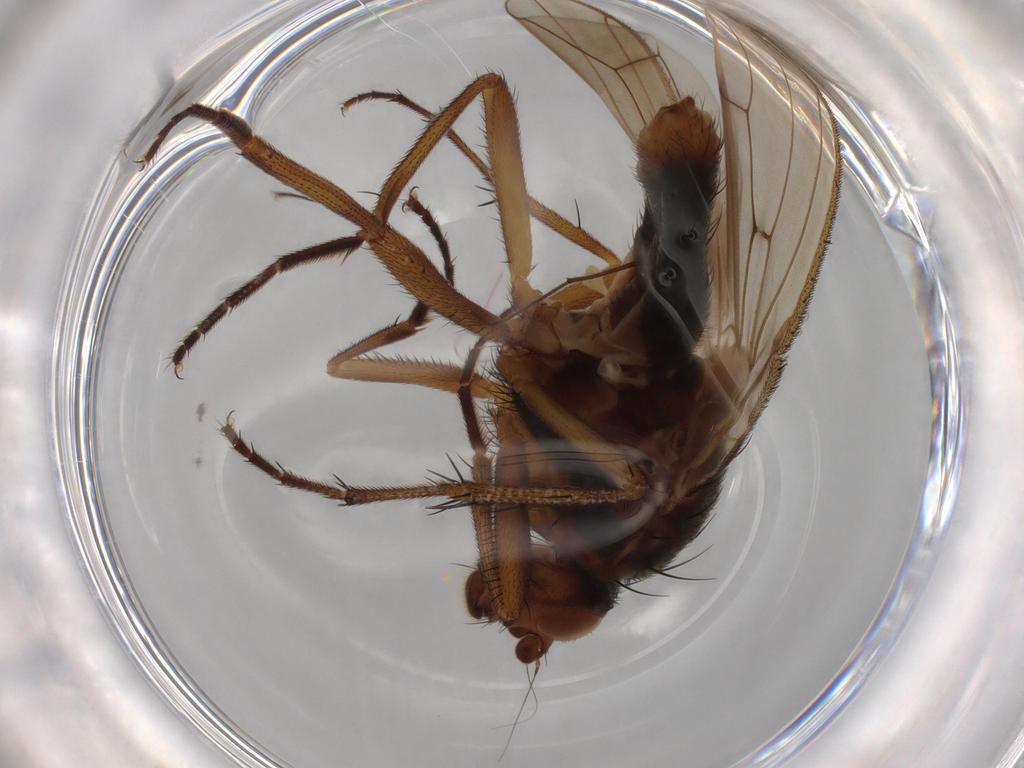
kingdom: Animalia
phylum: Arthropoda
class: Insecta
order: Diptera
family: Heleomyzidae
